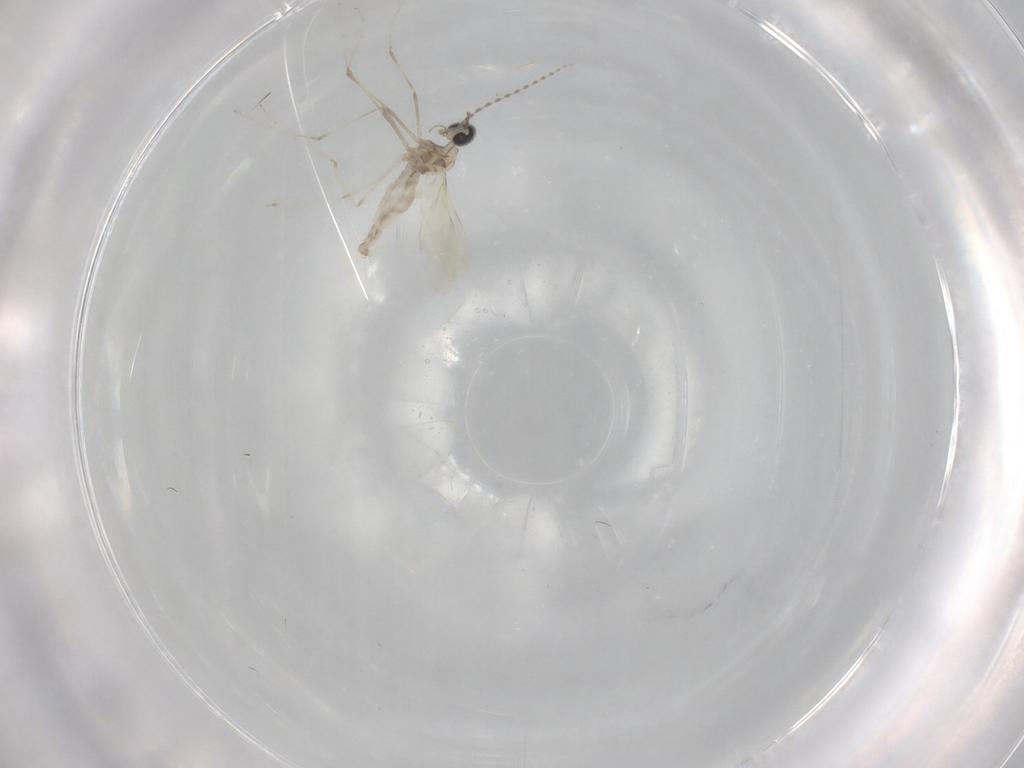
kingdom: Animalia
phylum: Arthropoda
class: Insecta
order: Diptera
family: Cecidomyiidae
